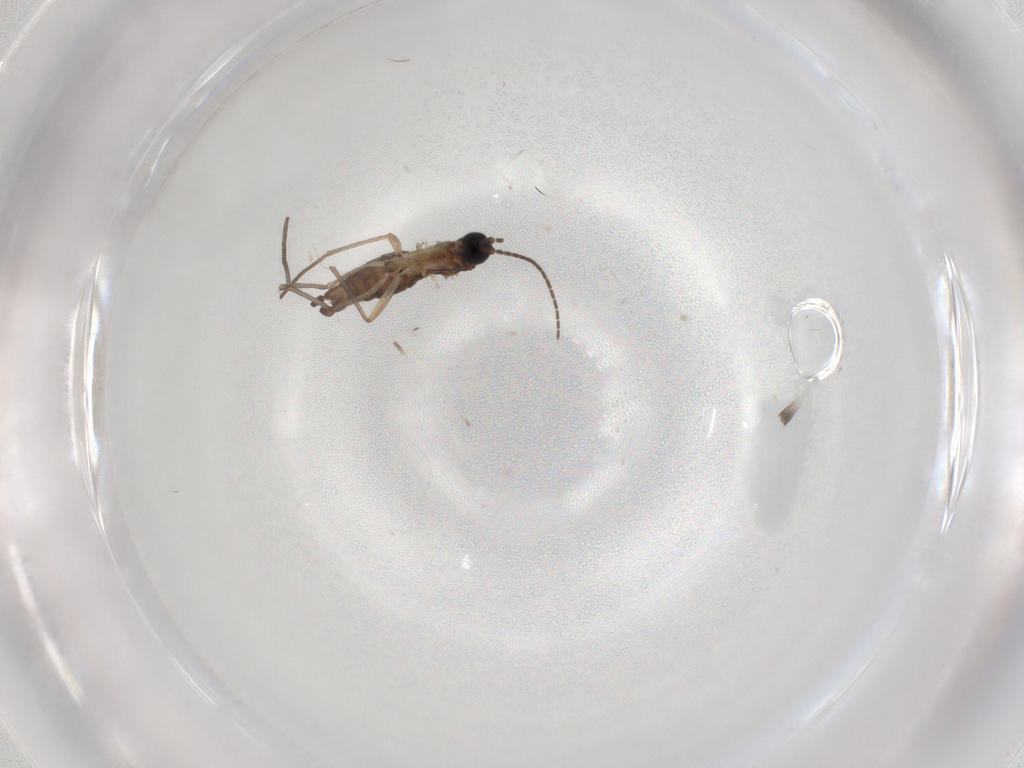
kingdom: Animalia
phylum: Arthropoda
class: Insecta
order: Diptera
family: Sciaridae
